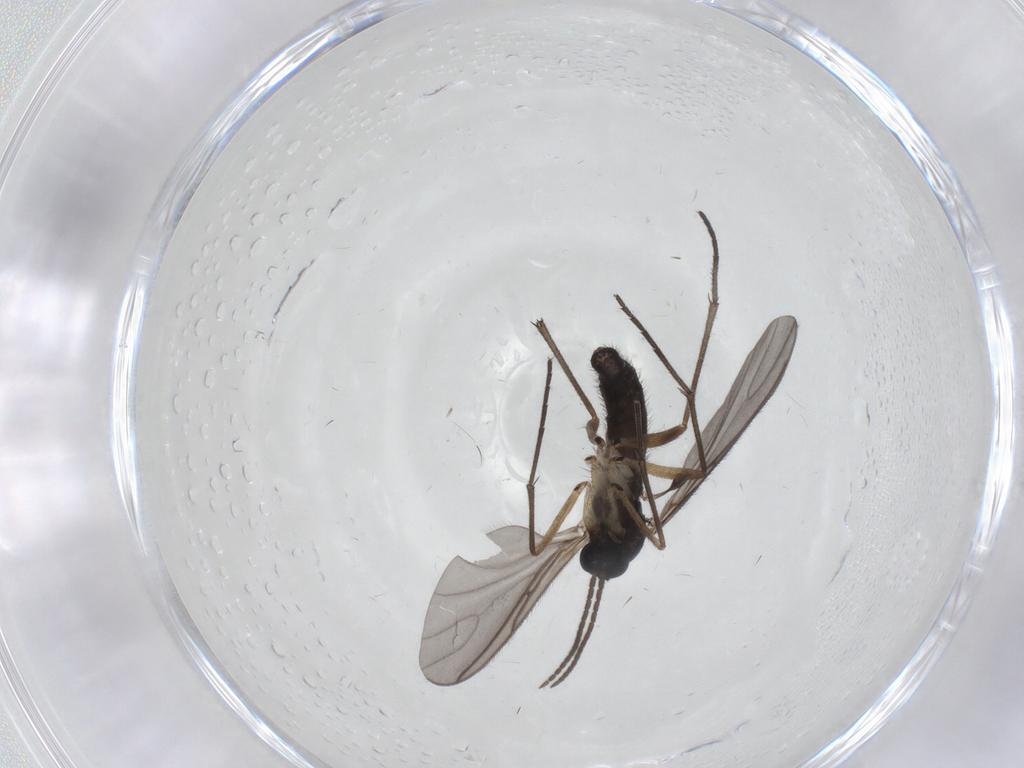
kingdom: Animalia
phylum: Arthropoda
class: Insecta
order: Diptera
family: Sciaridae
